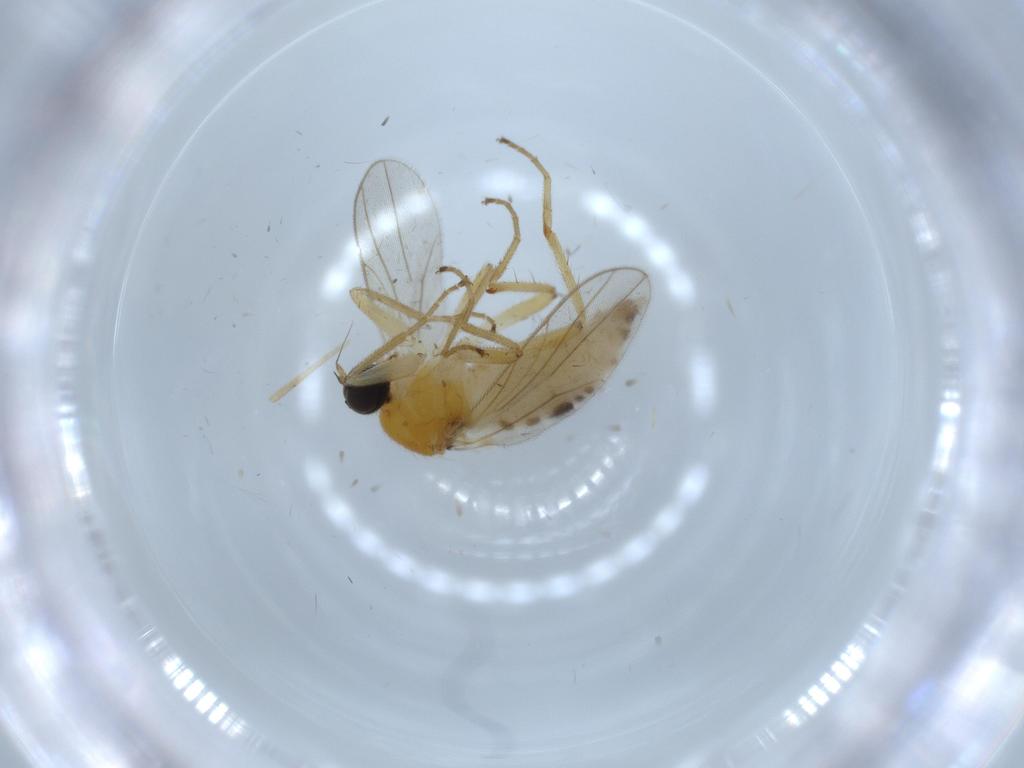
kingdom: Animalia
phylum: Arthropoda
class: Insecta
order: Diptera
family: Hybotidae
